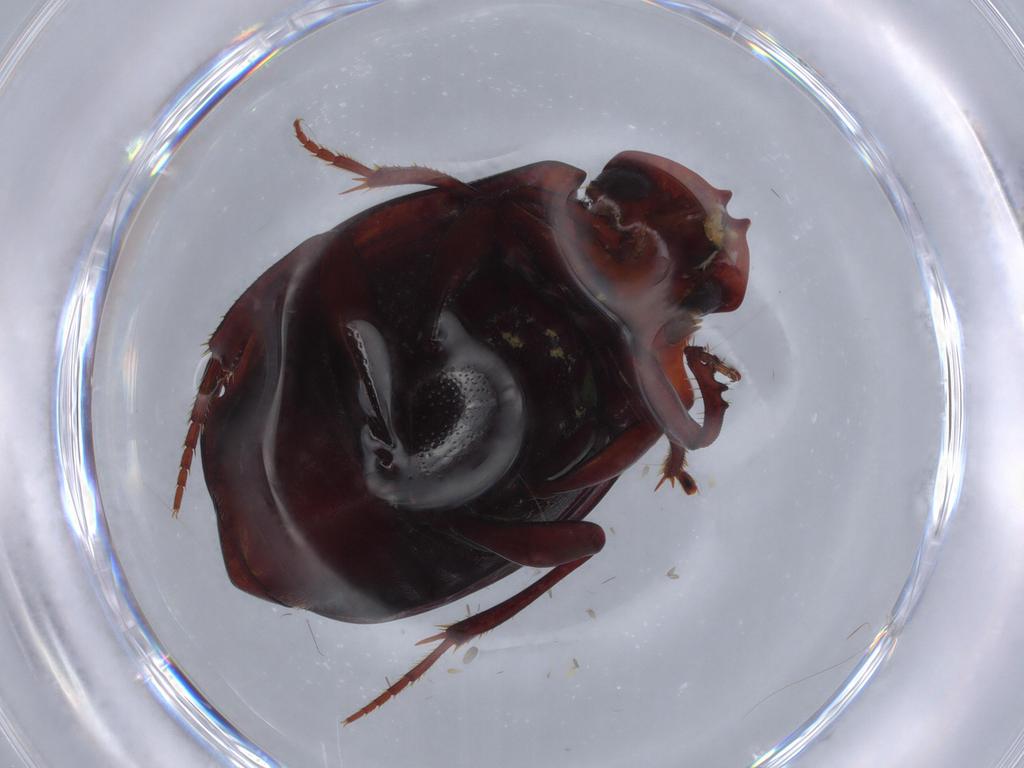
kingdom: Animalia
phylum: Arthropoda
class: Insecta
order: Coleoptera
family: Scarabaeidae
